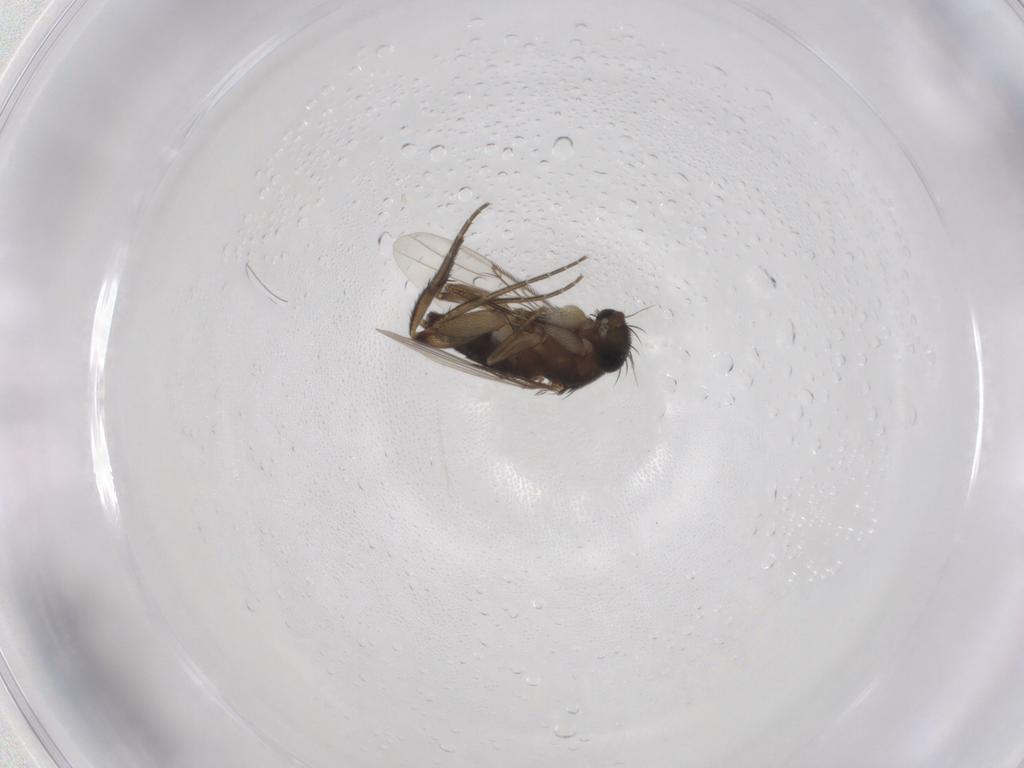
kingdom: Animalia
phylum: Arthropoda
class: Insecta
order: Diptera
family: Phoridae
